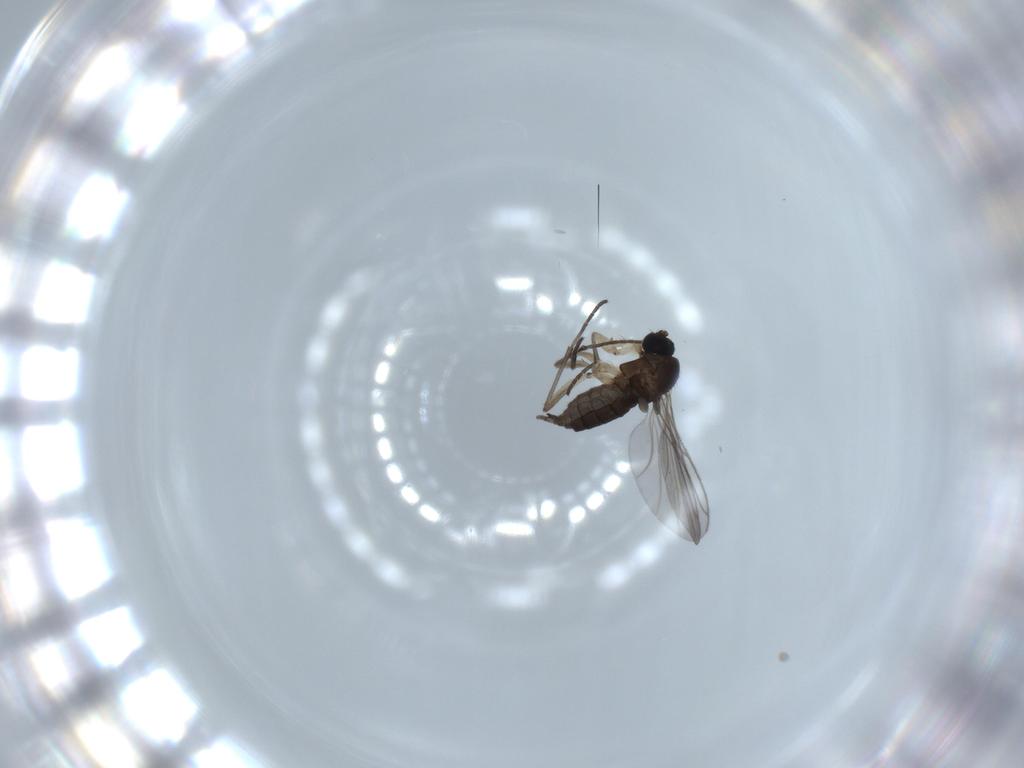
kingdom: Animalia
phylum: Arthropoda
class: Insecta
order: Diptera
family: Sciaridae
